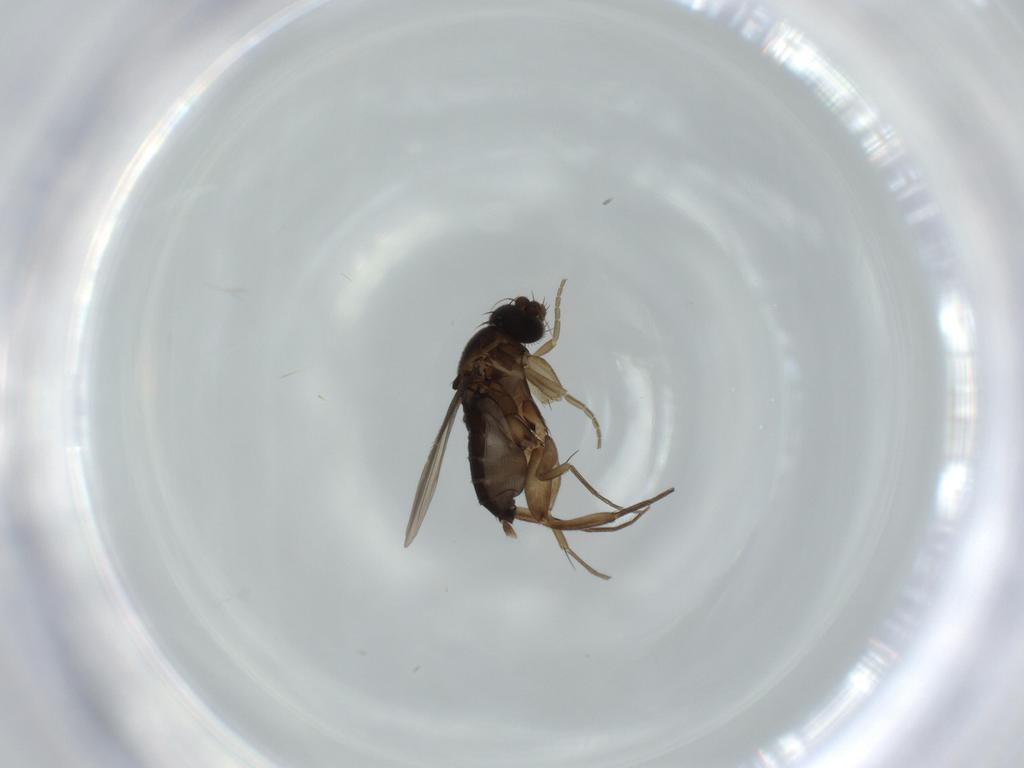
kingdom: Animalia
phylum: Arthropoda
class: Insecta
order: Diptera
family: Phoridae
